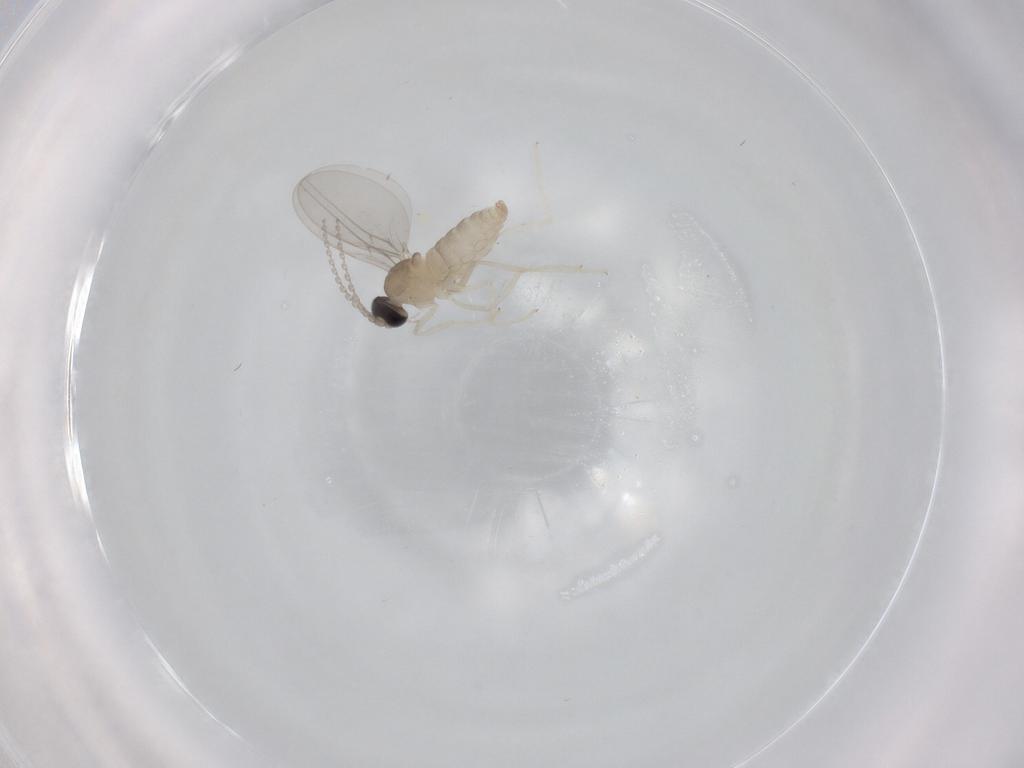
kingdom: Animalia
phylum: Arthropoda
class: Insecta
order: Diptera
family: Cecidomyiidae
